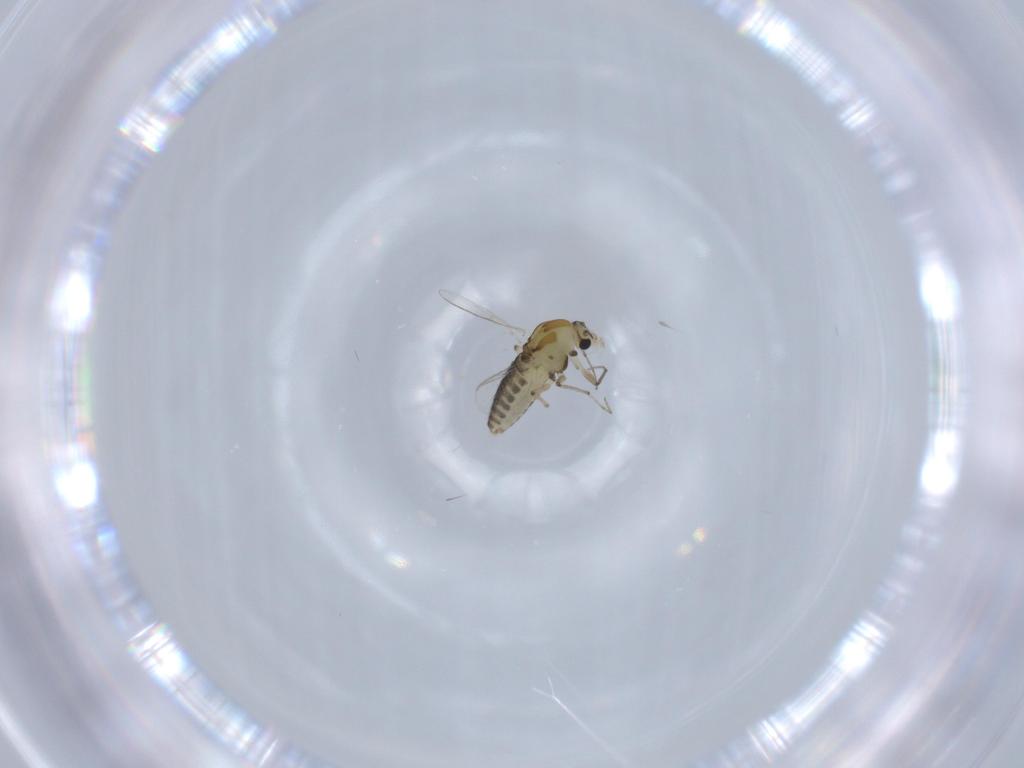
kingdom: Animalia
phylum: Arthropoda
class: Insecta
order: Diptera
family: Chironomidae
